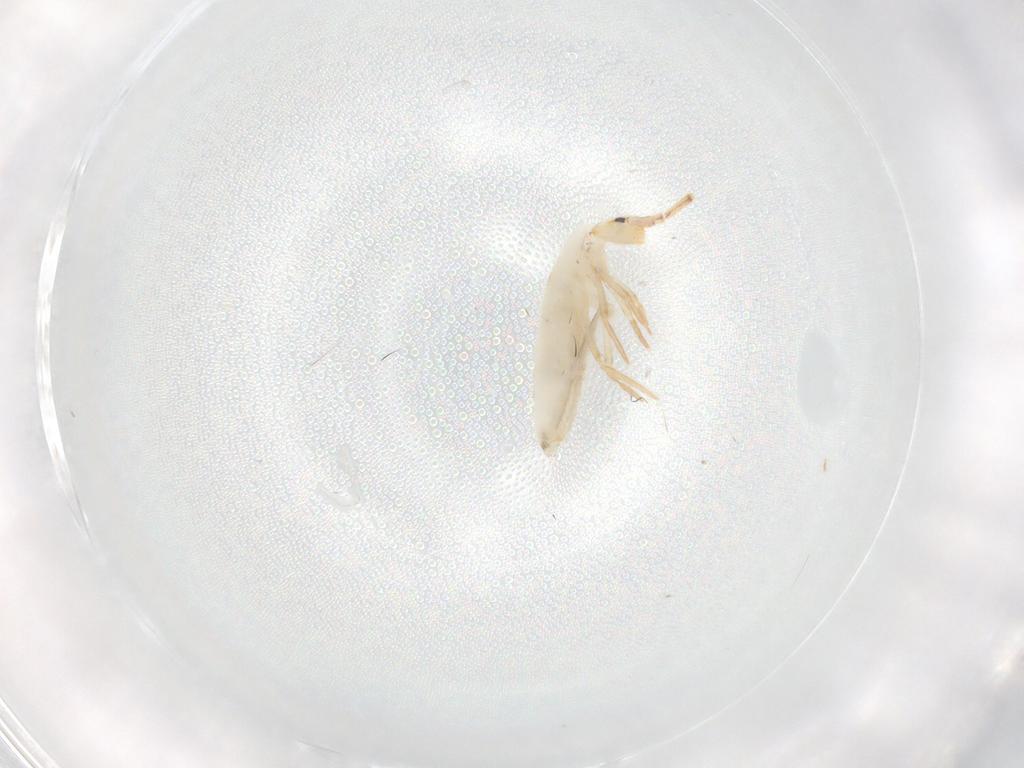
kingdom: Animalia
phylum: Arthropoda
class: Collembola
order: Entomobryomorpha
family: Entomobryidae
